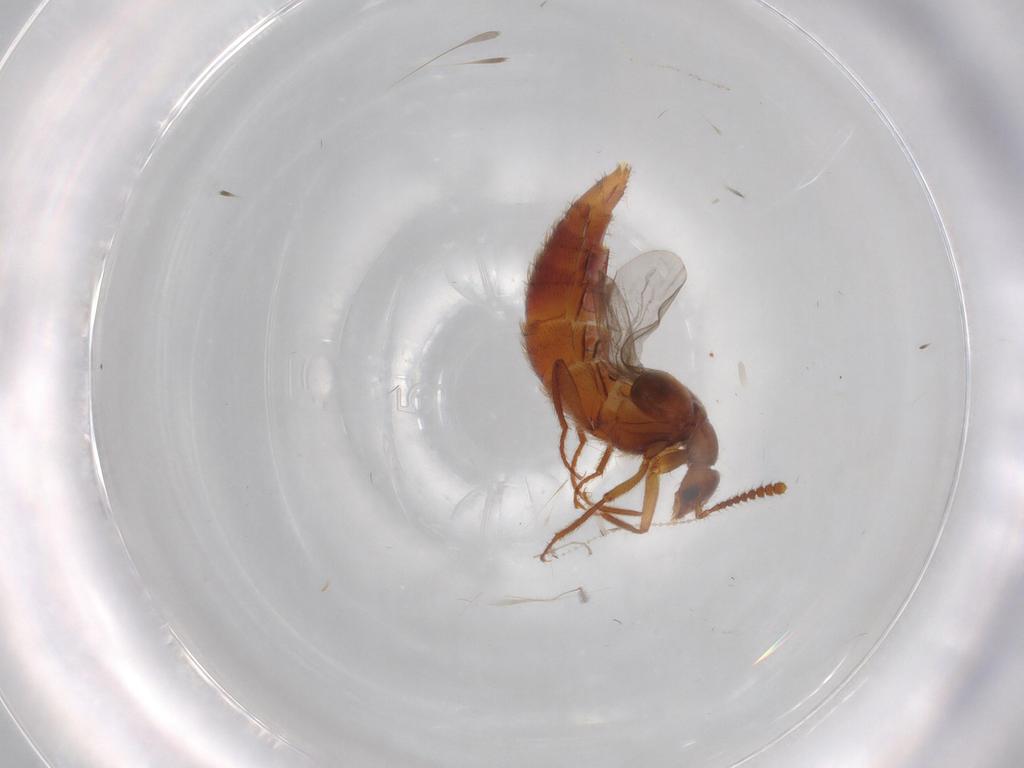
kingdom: Animalia
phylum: Arthropoda
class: Insecta
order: Coleoptera
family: Staphylinidae
